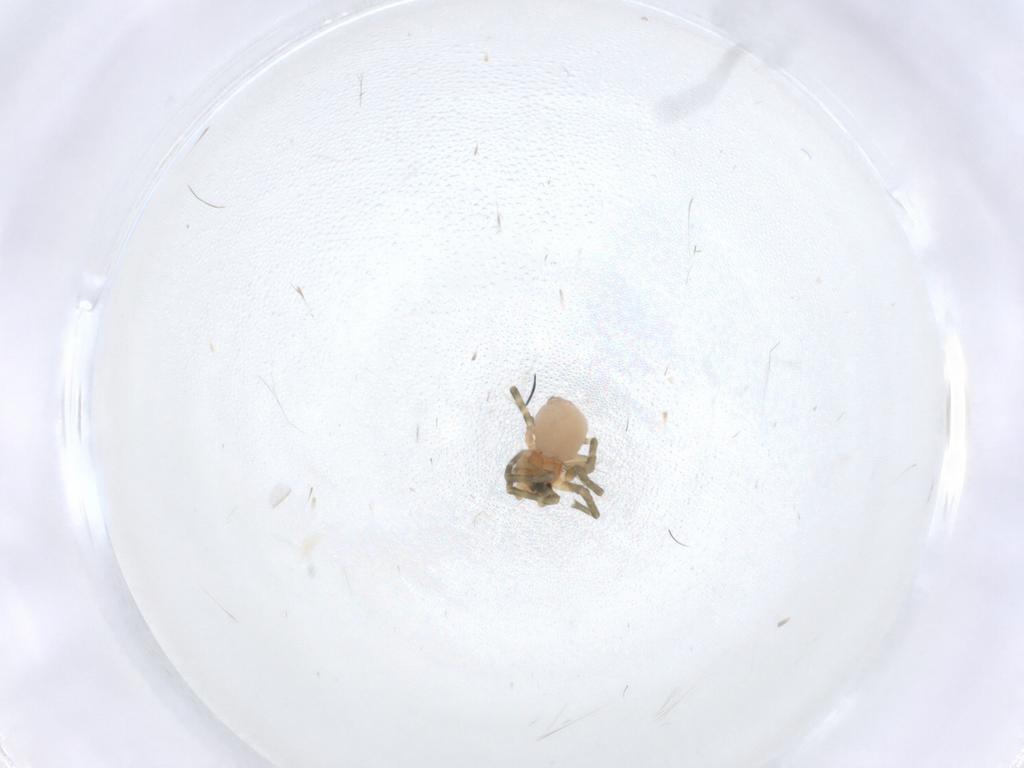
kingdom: Animalia
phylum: Arthropoda
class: Arachnida
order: Araneae
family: Linyphiidae
